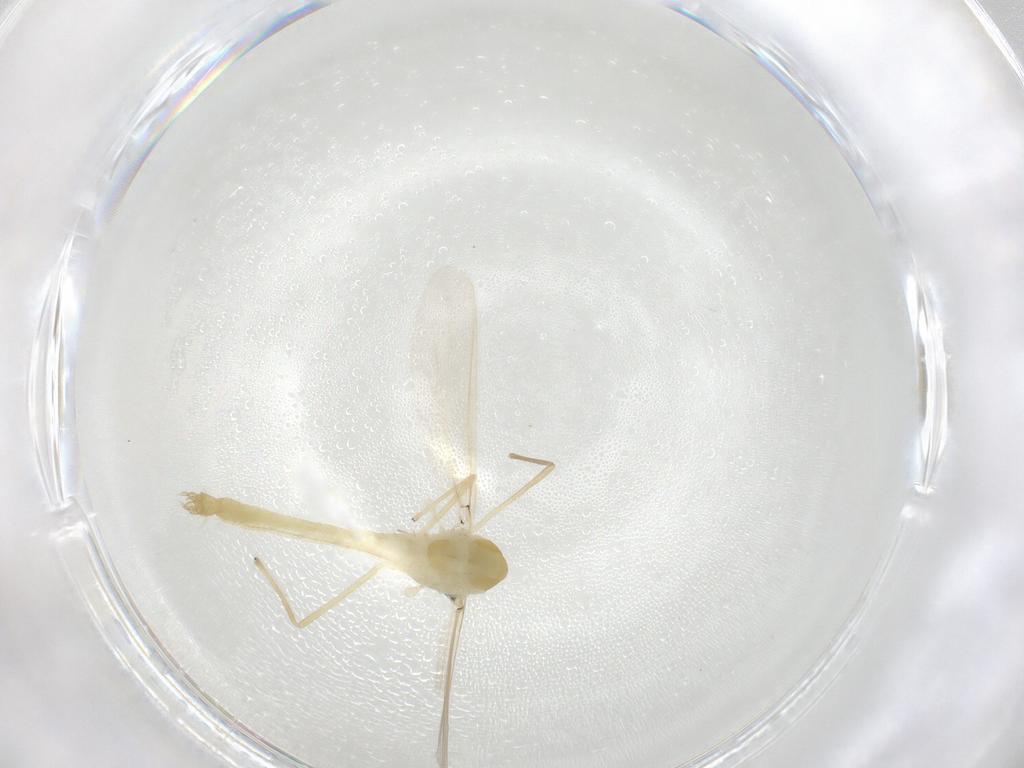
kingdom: Animalia
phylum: Arthropoda
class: Insecta
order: Diptera
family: Chironomidae
